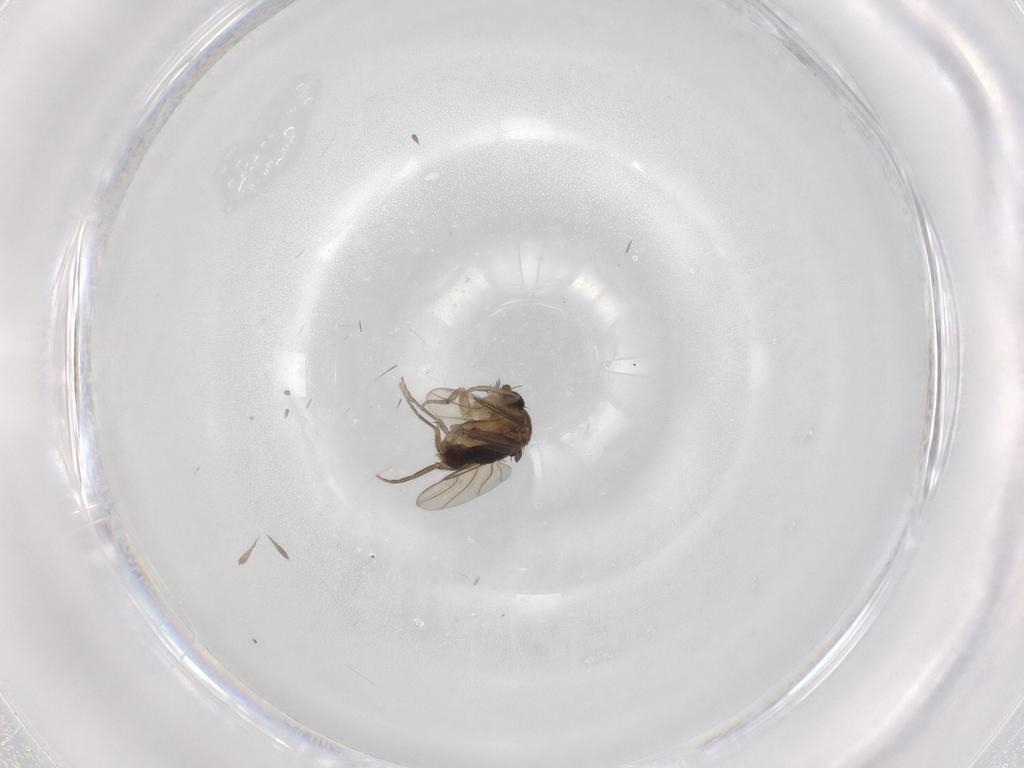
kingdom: Animalia
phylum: Arthropoda
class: Insecta
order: Diptera
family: Phoridae
